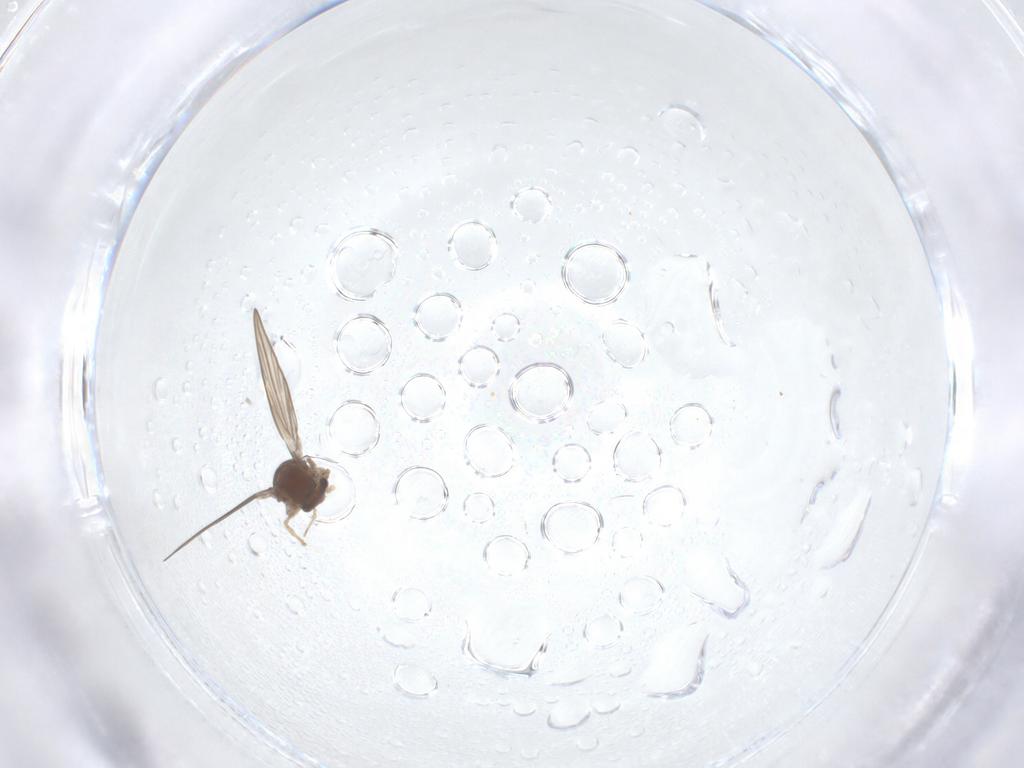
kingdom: Animalia
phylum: Arthropoda
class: Insecta
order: Diptera
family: Psychodidae
